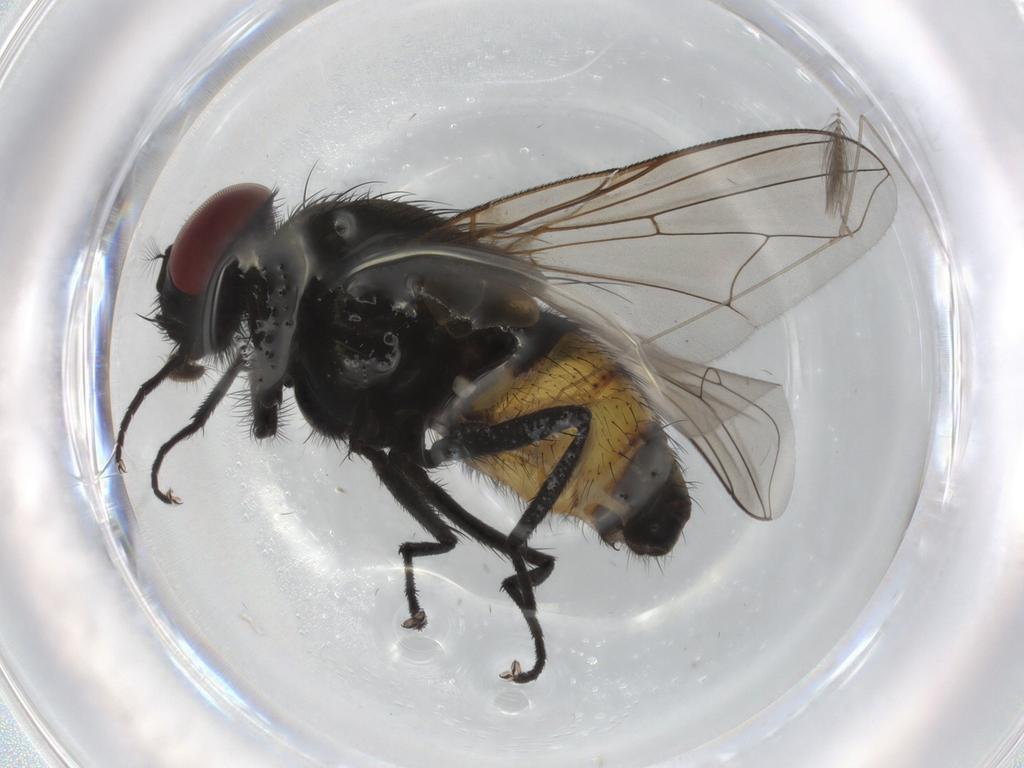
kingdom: Animalia
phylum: Arthropoda
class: Insecta
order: Diptera
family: Muscidae
